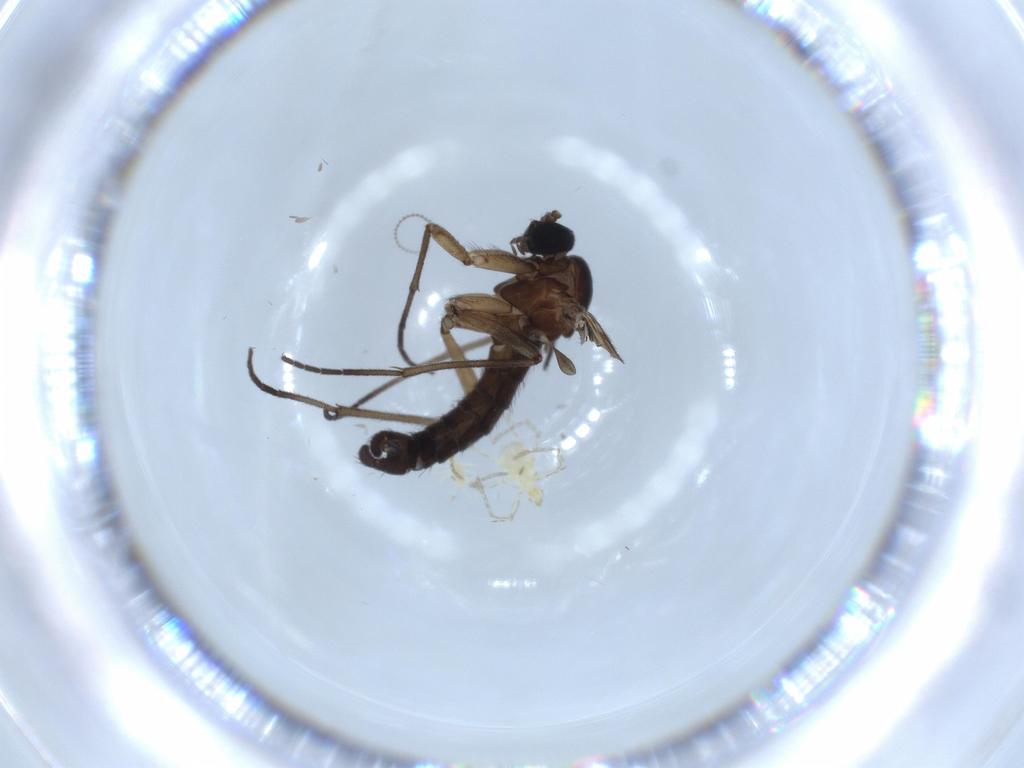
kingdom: Animalia
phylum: Arthropoda
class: Insecta
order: Diptera
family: Sciaridae
